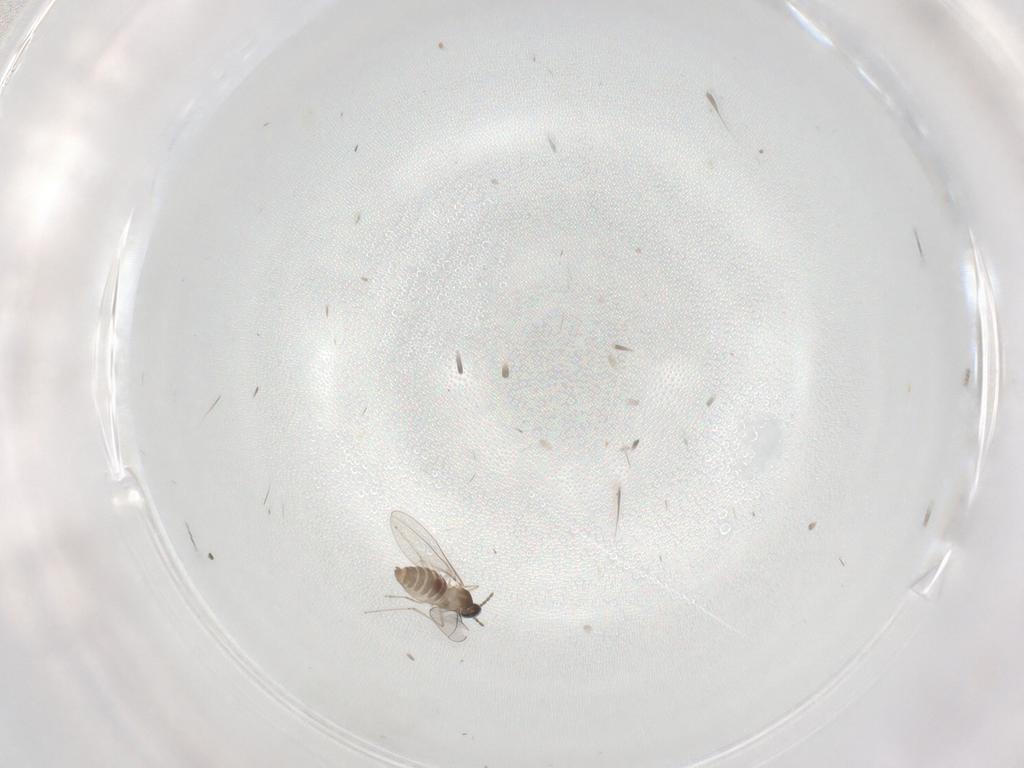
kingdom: Animalia
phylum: Arthropoda
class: Insecta
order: Diptera
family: Cecidomyiidae
